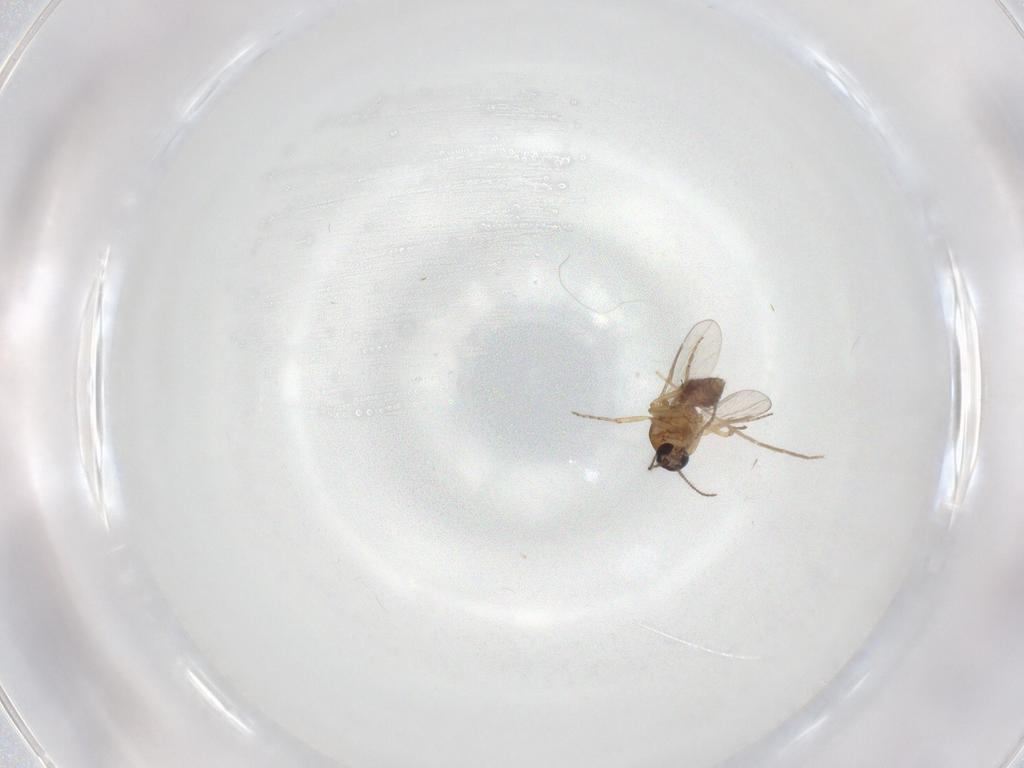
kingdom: Animalia
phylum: Arthropoda
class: Insecta
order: Diptera
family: Chironomidae
